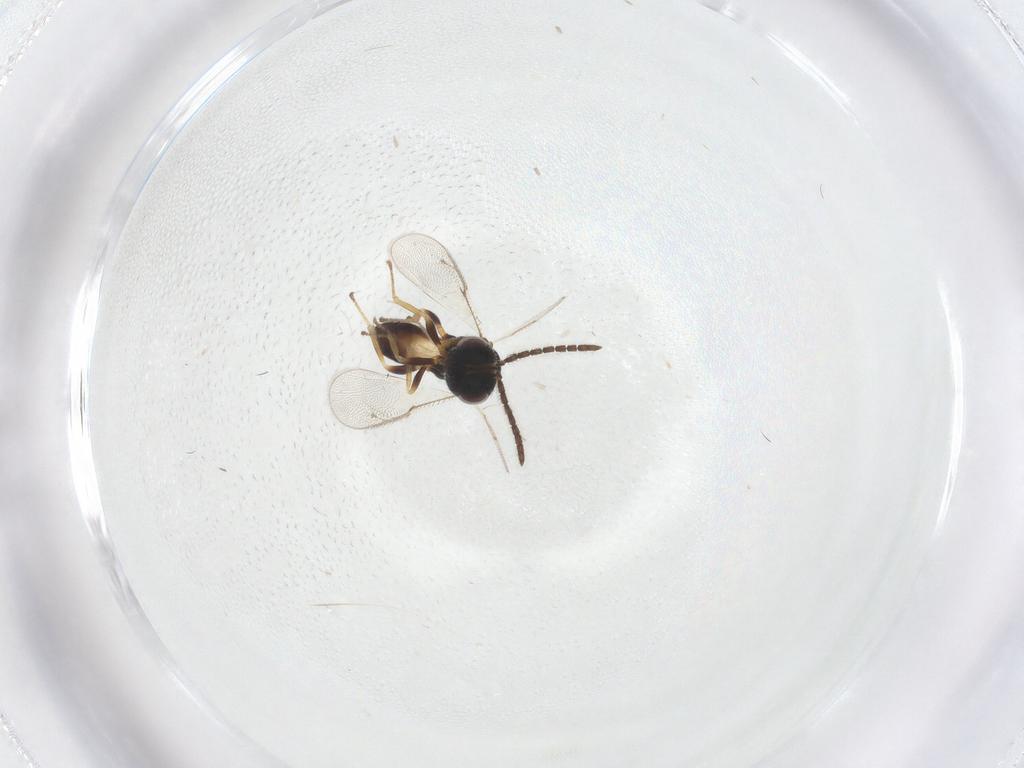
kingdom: Animalia
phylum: Arthropoda
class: Insecta
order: Hymenoptera
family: Pteromalidae
